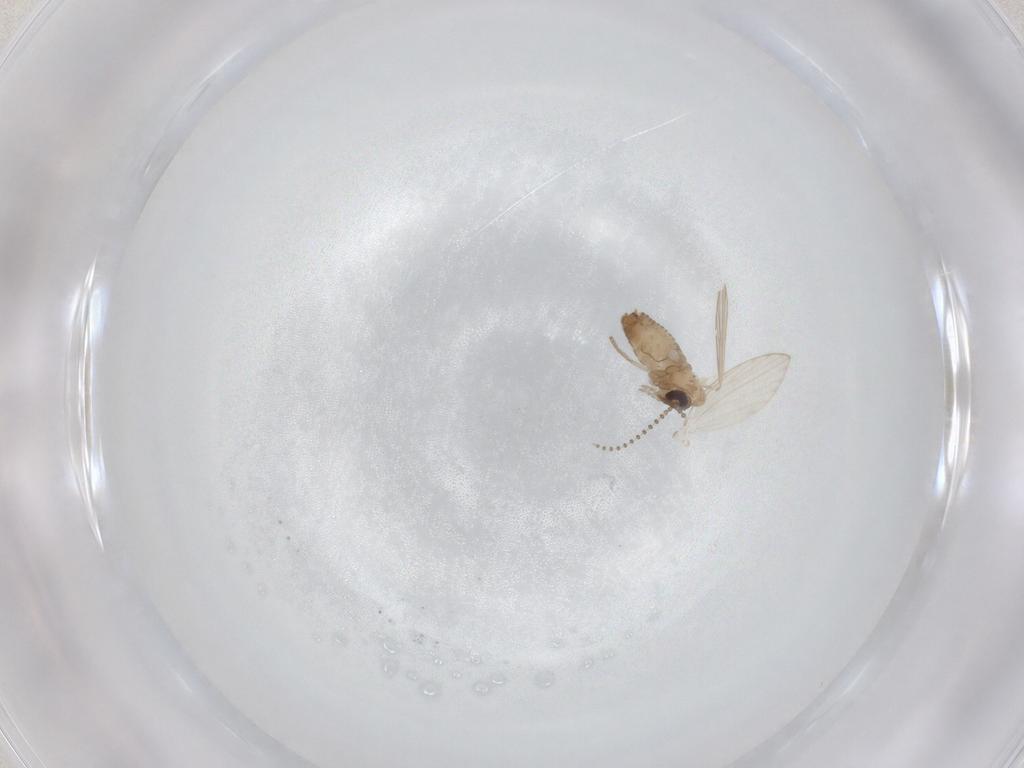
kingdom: Animalia
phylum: Arthropoda
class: Insecta
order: Diptera
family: Psychodidae
